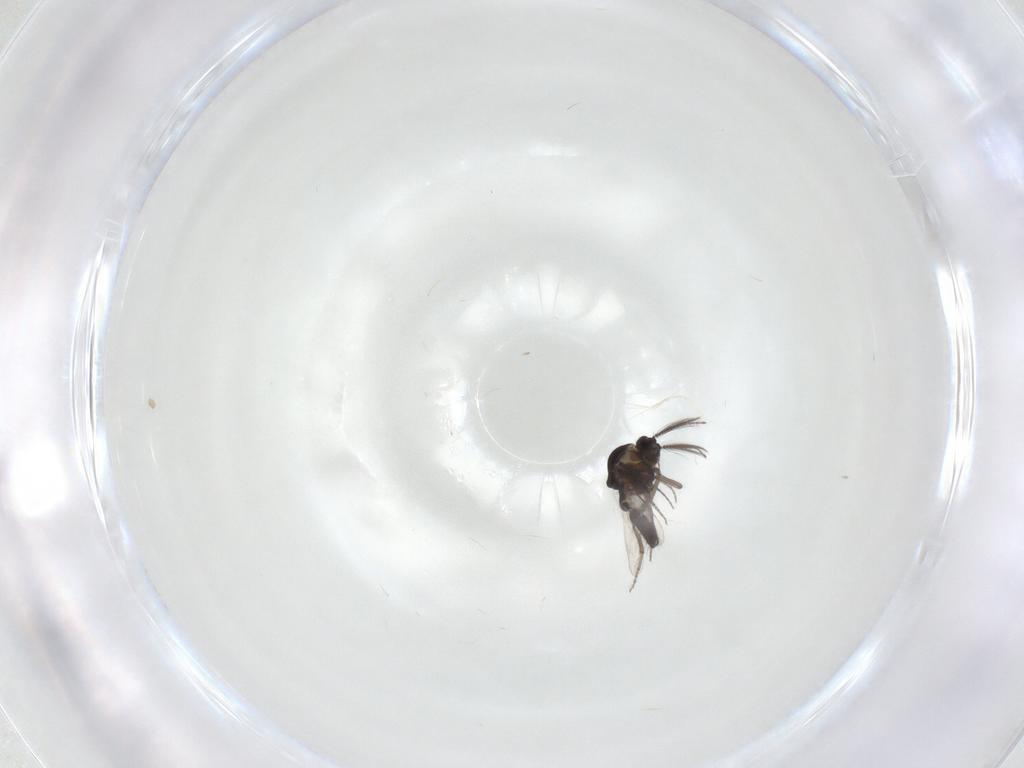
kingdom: Animalia
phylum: Arthropoda
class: Insecta
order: Diptera
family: Ceratopogonidae
